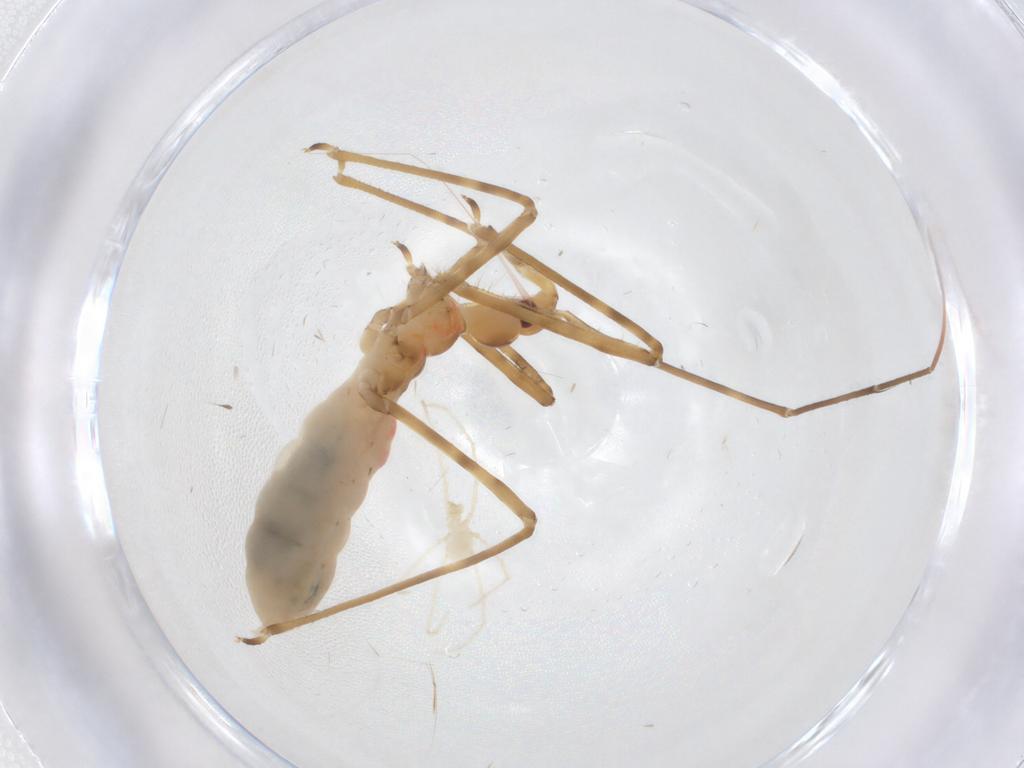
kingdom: Animalia
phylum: Arthropoda
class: Insecta
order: Hemiptera
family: Reduviidae
